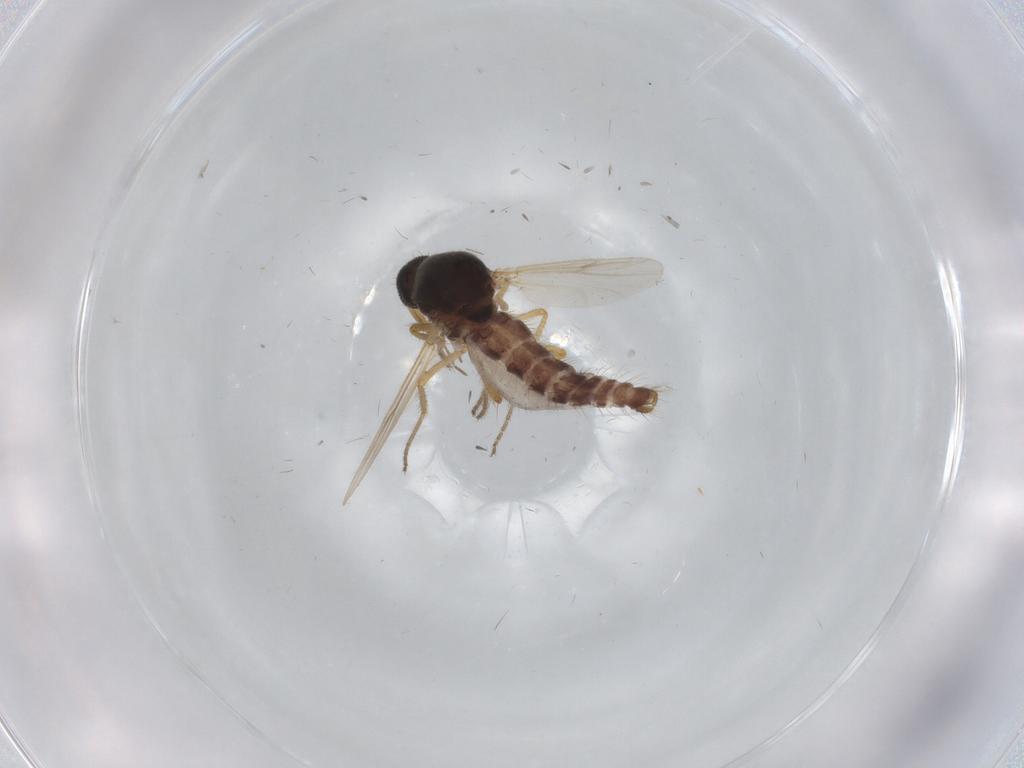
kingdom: Animalia
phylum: Arthropoda
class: Insecta
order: Diptera
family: Ceratopogonidae
